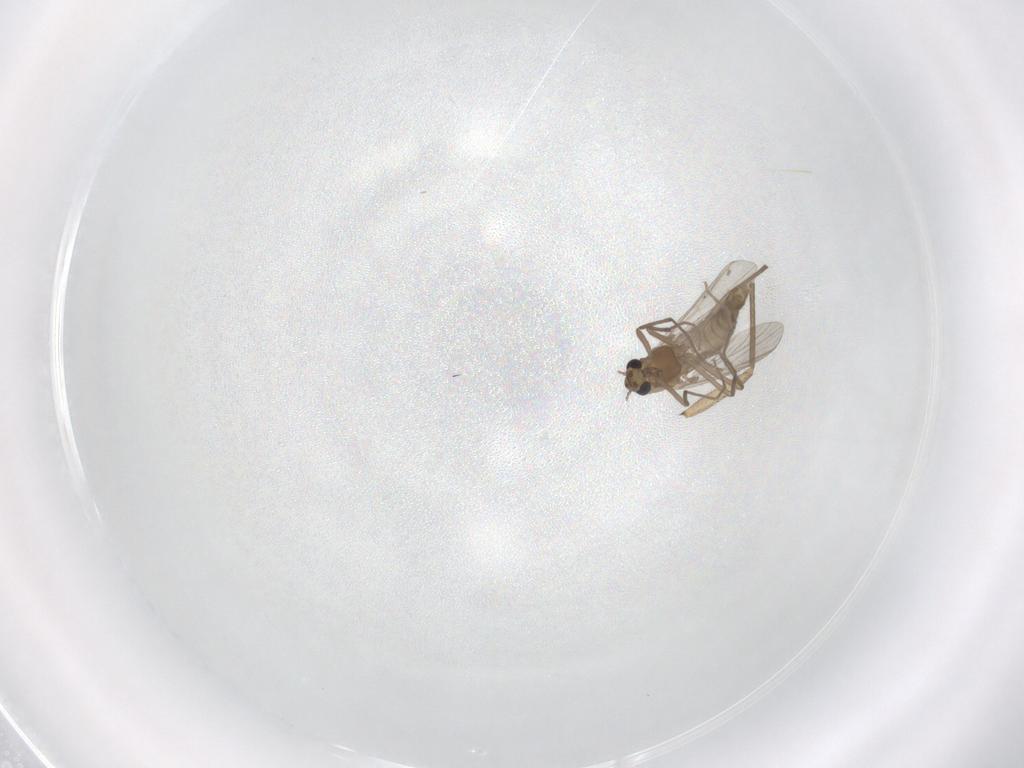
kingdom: Animalia
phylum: Arthropoda
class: Insecta
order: Diptera
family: Chironomidae
